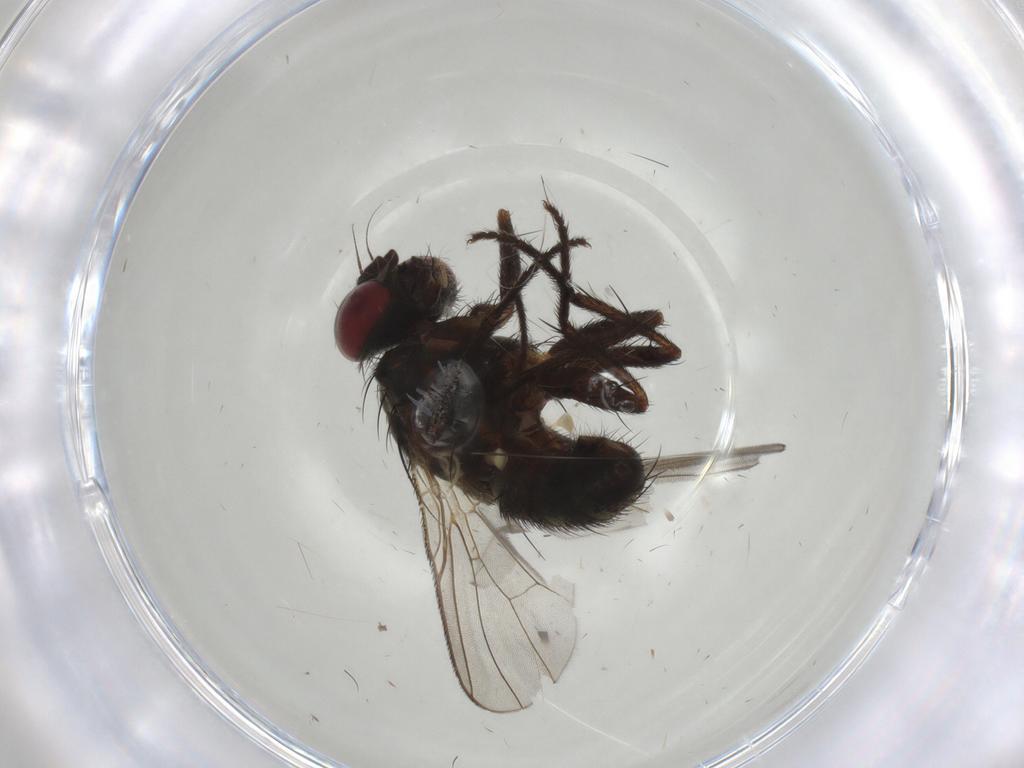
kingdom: Animalia
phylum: Arthropoda
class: Insecta
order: Diptera
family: Muscidae
